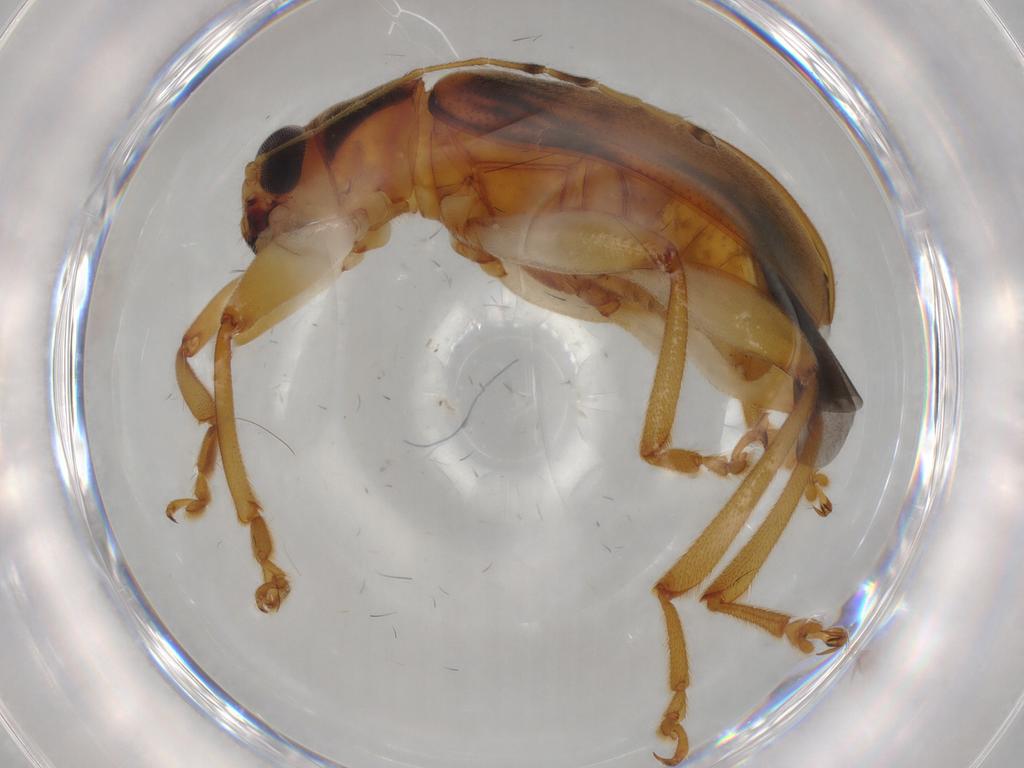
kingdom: Animalia
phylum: Arthropoda
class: Insecta
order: Coleoptera
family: Chrysomelidae
